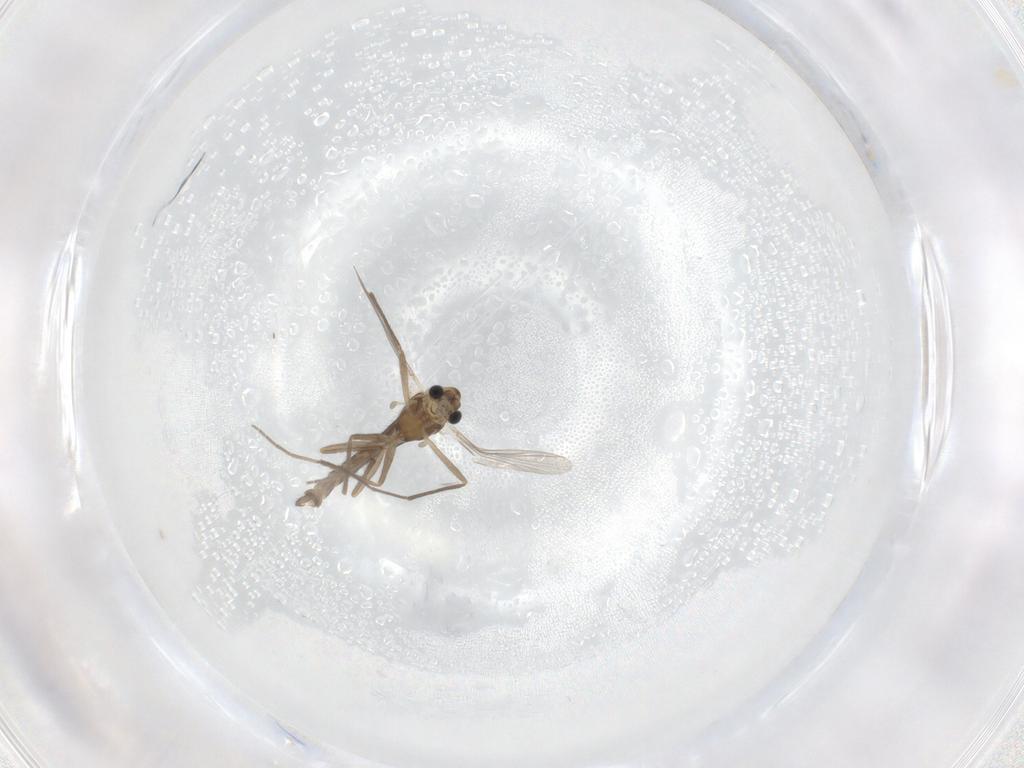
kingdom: Animalia
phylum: Arthropoda
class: Insecta
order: Diptera
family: Chironomidae
